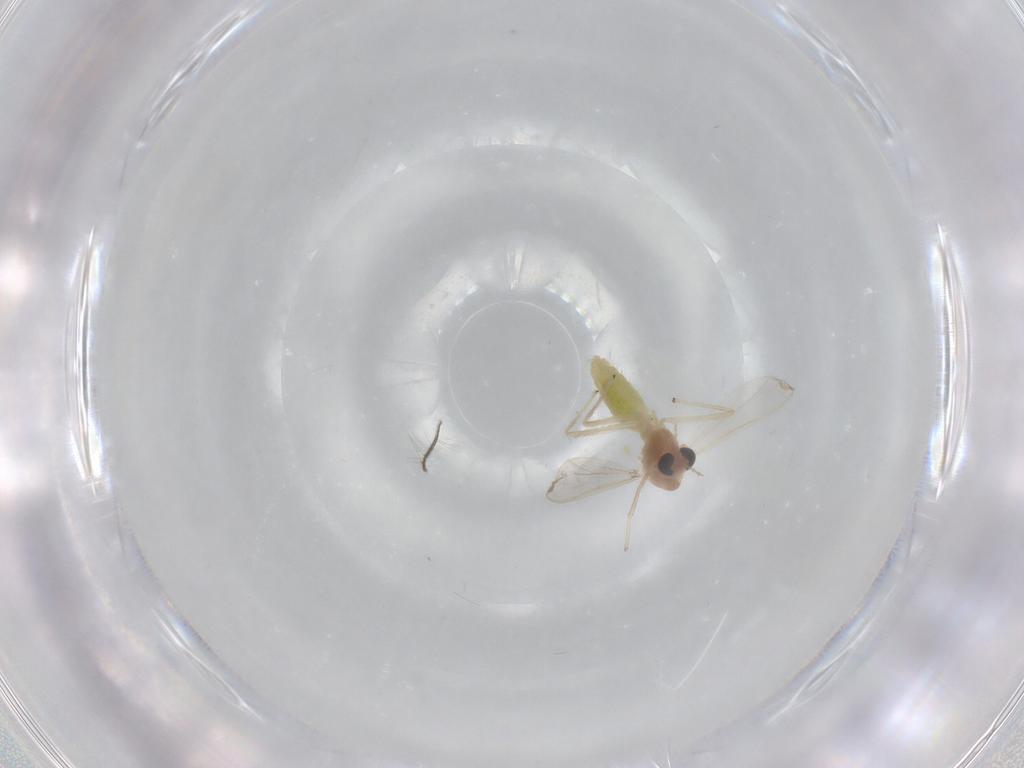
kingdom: Animalia
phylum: Arthropoda
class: Insecta
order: Diptera
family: Chironomidae
